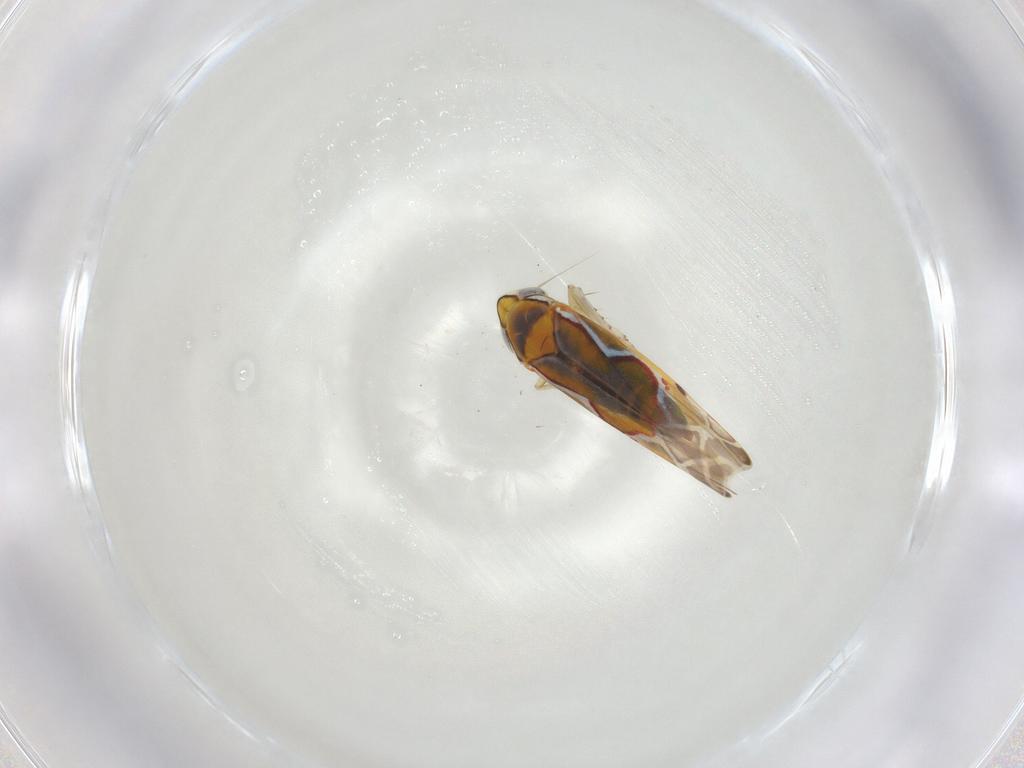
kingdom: Animalia
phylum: Arthropoda
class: Insecta
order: Hemiptera
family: Cicadellidae
